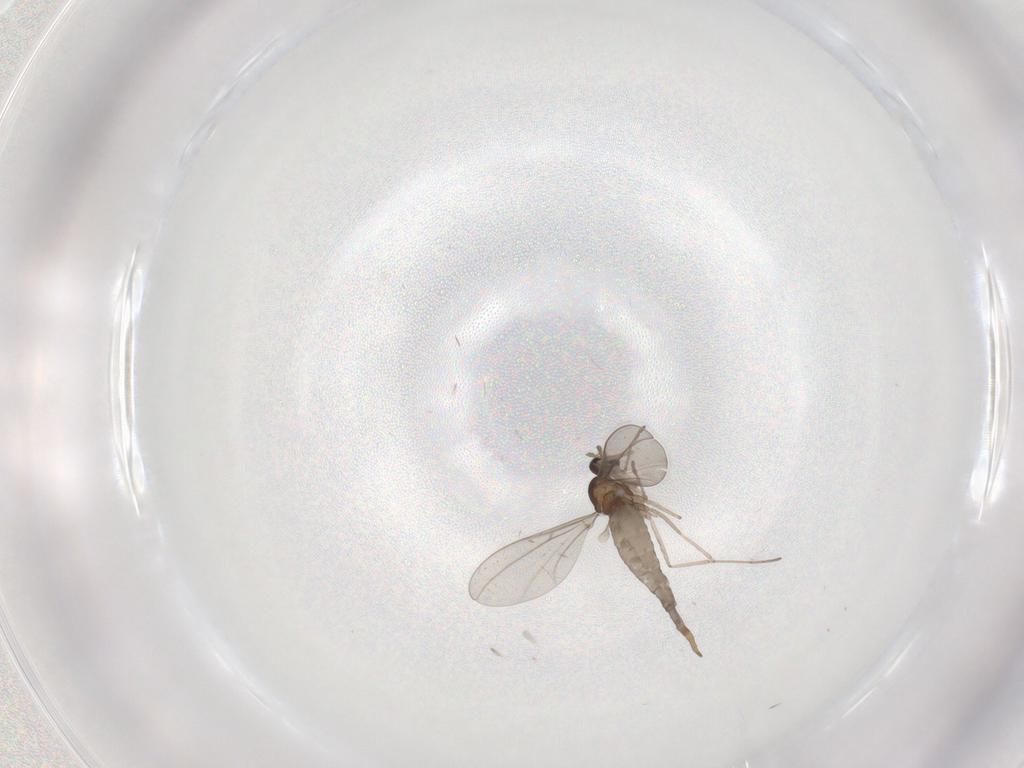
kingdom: Animalia
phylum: Arthropoda
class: Insecta
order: Diptera
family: Cecidomyiidae
